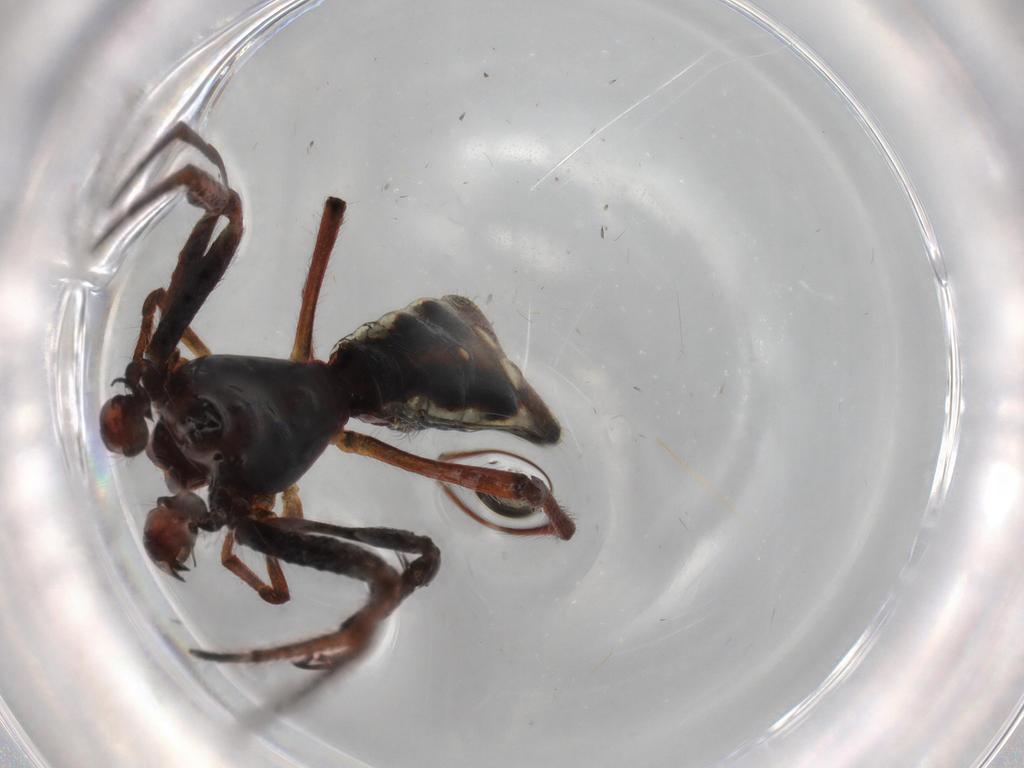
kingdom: Animalia
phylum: Arthropoda
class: Arachnida
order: Araneae
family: Araneidae
